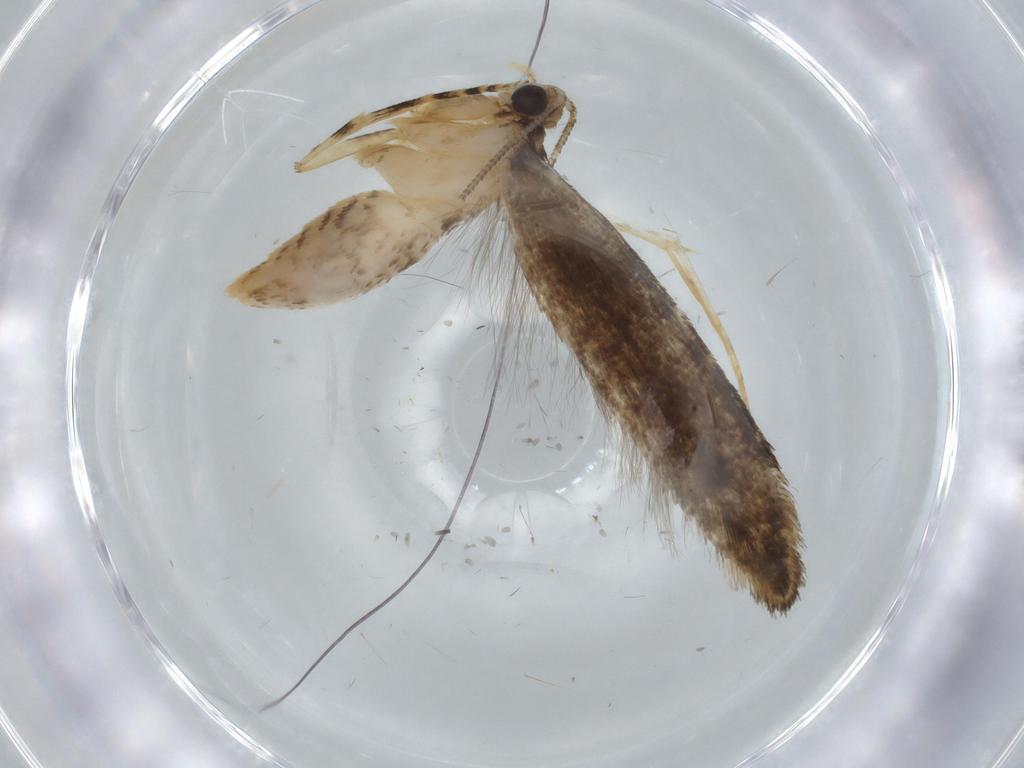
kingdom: Animalia
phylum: Arthropoda
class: Insecta
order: Lepidoptera
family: Tineidae
